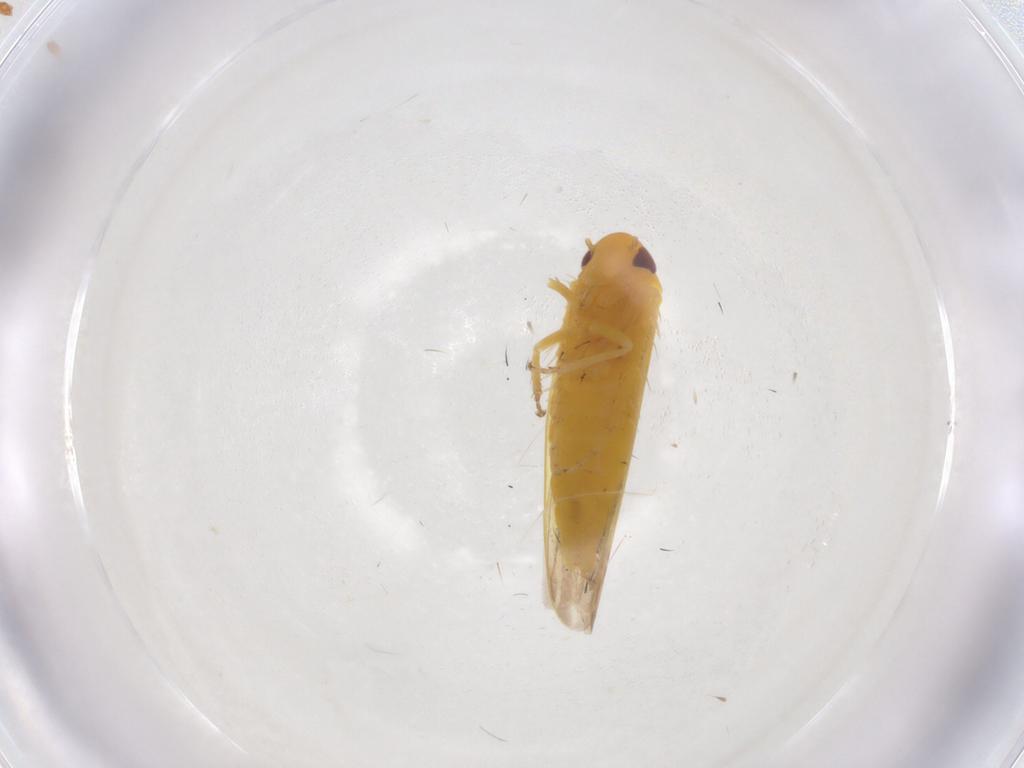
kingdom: Animalia
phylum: Arthropoda
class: Insecta
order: Hemiptera
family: Cicadellidae
